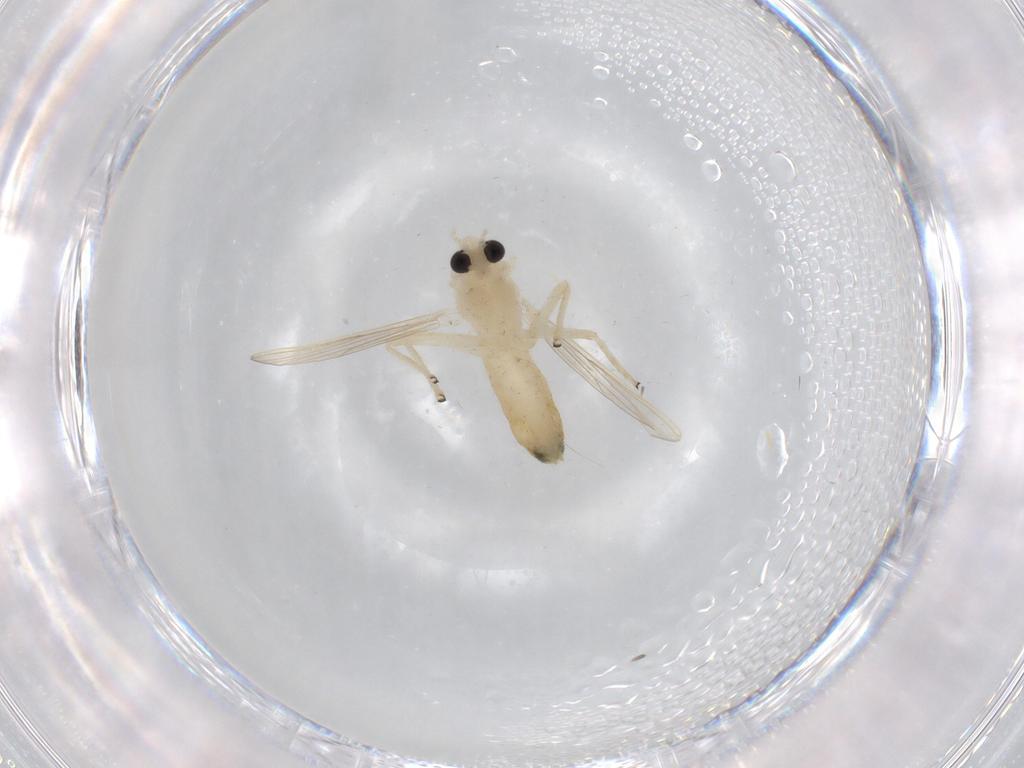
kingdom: Animalia
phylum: Arthropoda
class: Insecta
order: Diptera
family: Chironomidae
